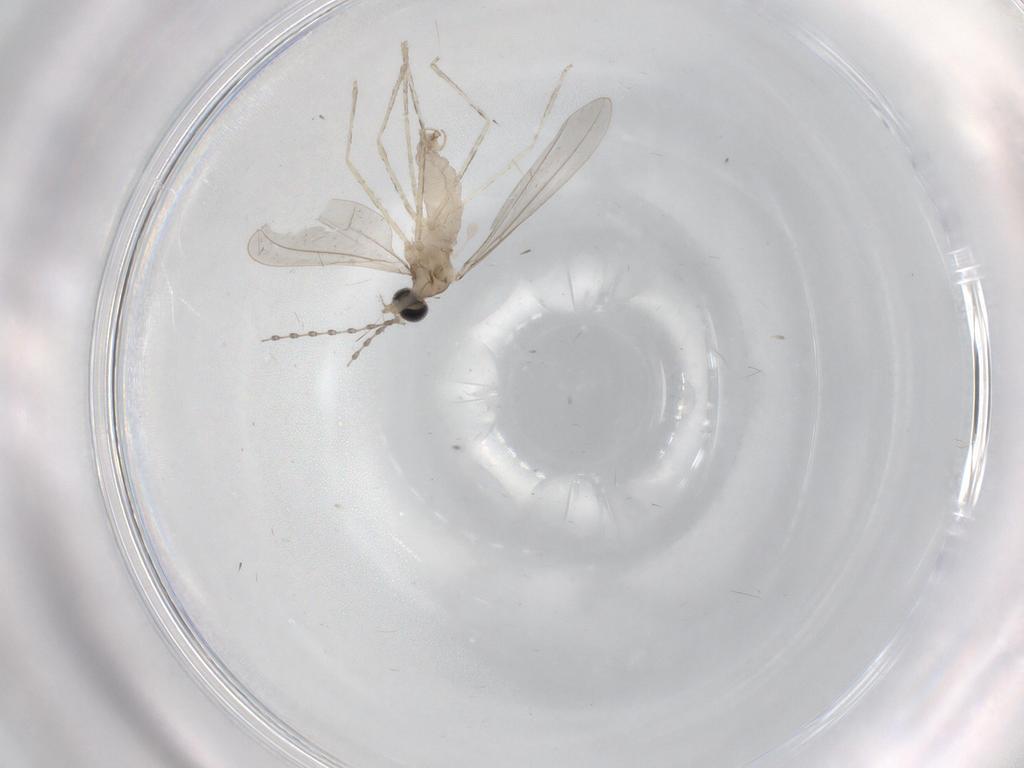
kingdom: Animalia
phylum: Arthropoda
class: Insecta
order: Diptera
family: Cecidomyiidae
